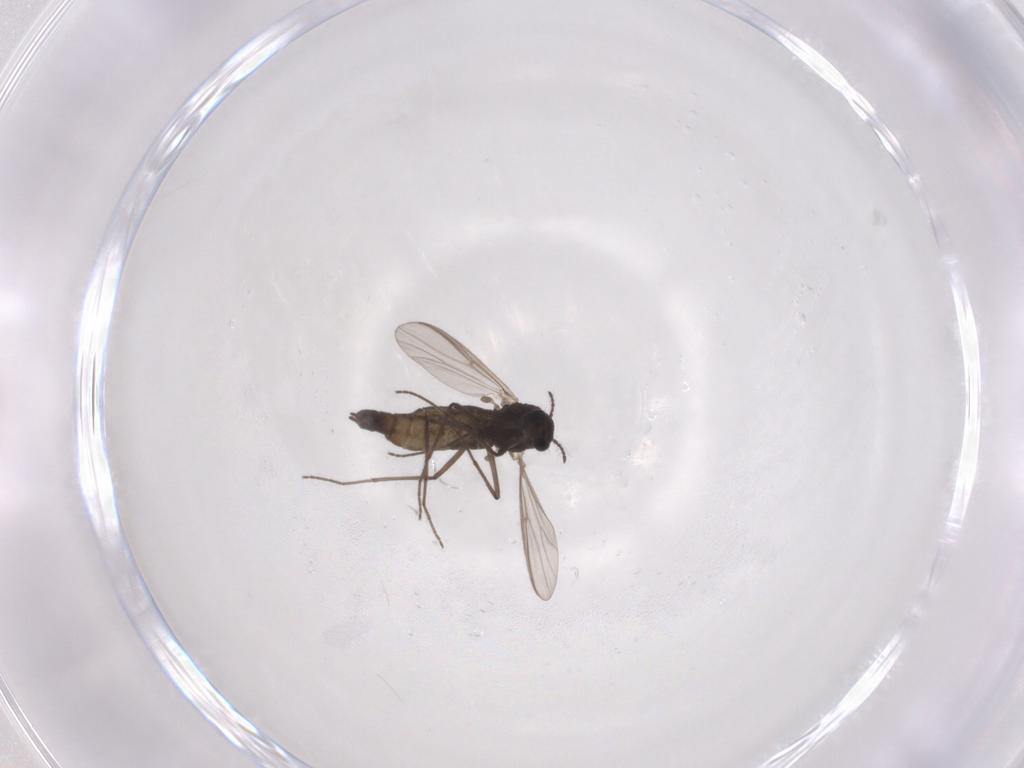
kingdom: Animalia
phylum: Arthropoda
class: Insecta
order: Diptera
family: Chironomidae
